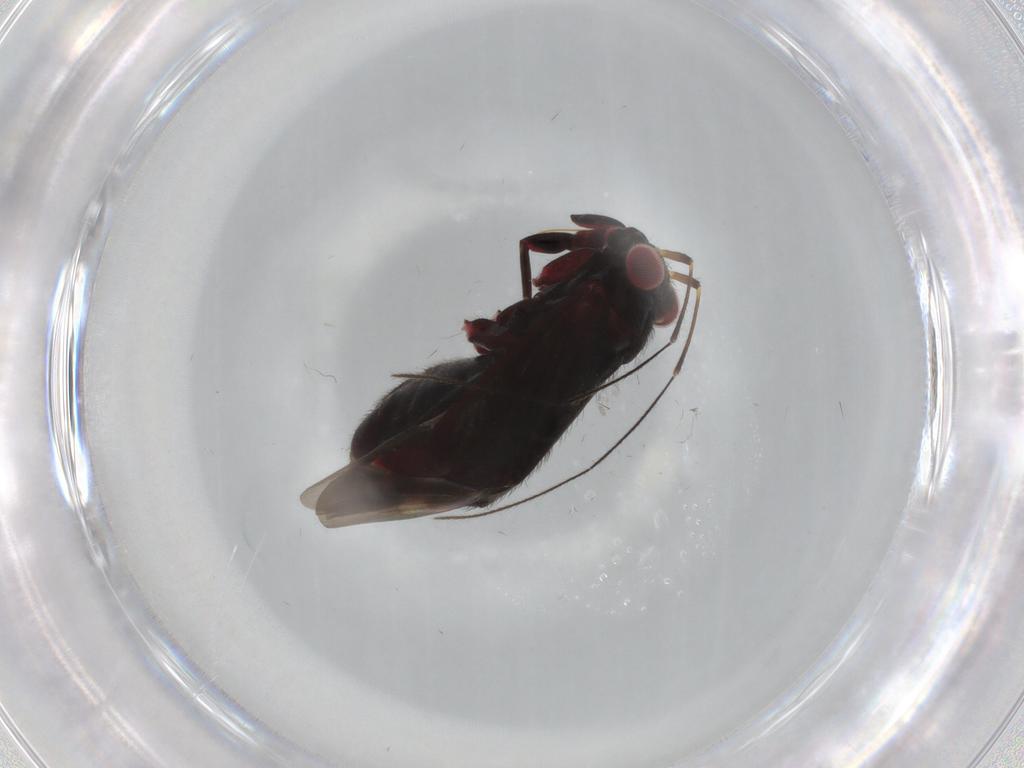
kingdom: Animalia
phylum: Arthropoda
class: Insecta
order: Hemiptera
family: Miridae
